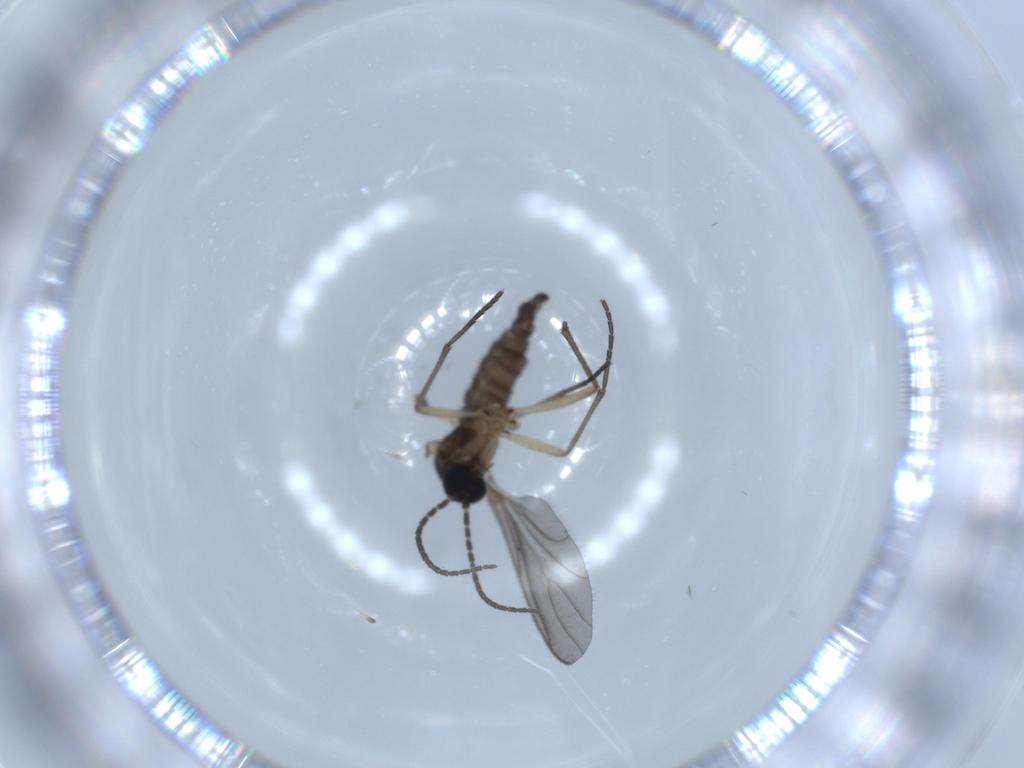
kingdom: Animalia
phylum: Arthropoda
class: Insecta
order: Diptera
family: Sciaridae
